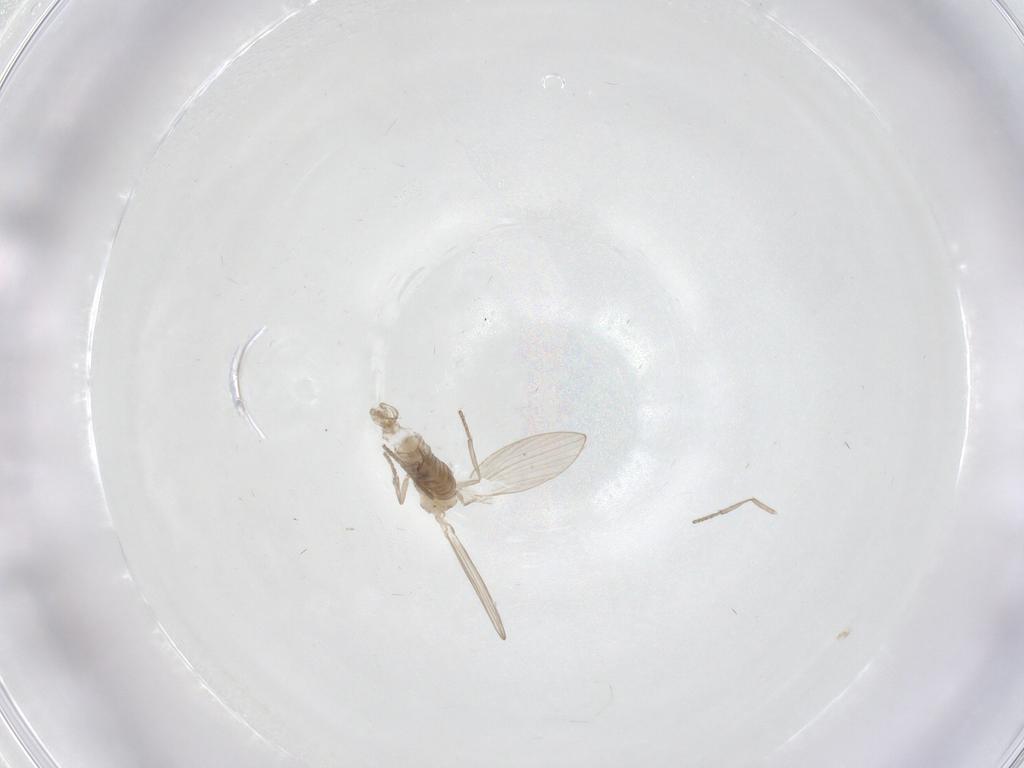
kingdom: Animalia
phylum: Arthropoda
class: Insecta
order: Diptera
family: Psychodidae
